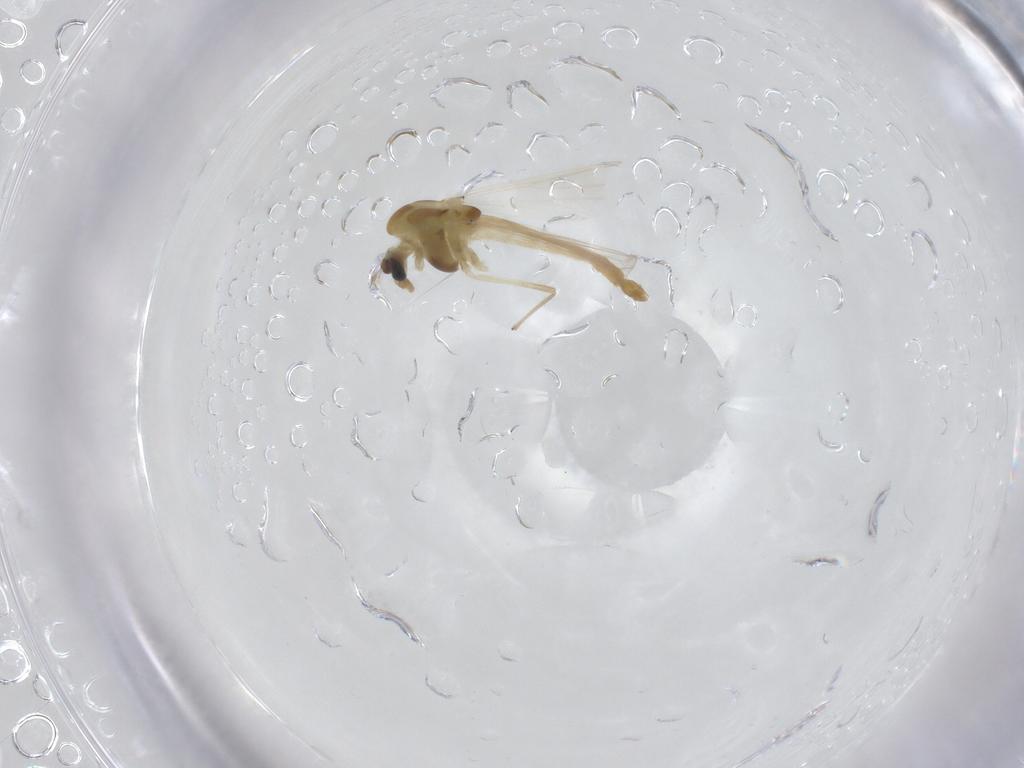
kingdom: Animalia
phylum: Arthropoda
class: Insecta
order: Diptera
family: Chironomidae
